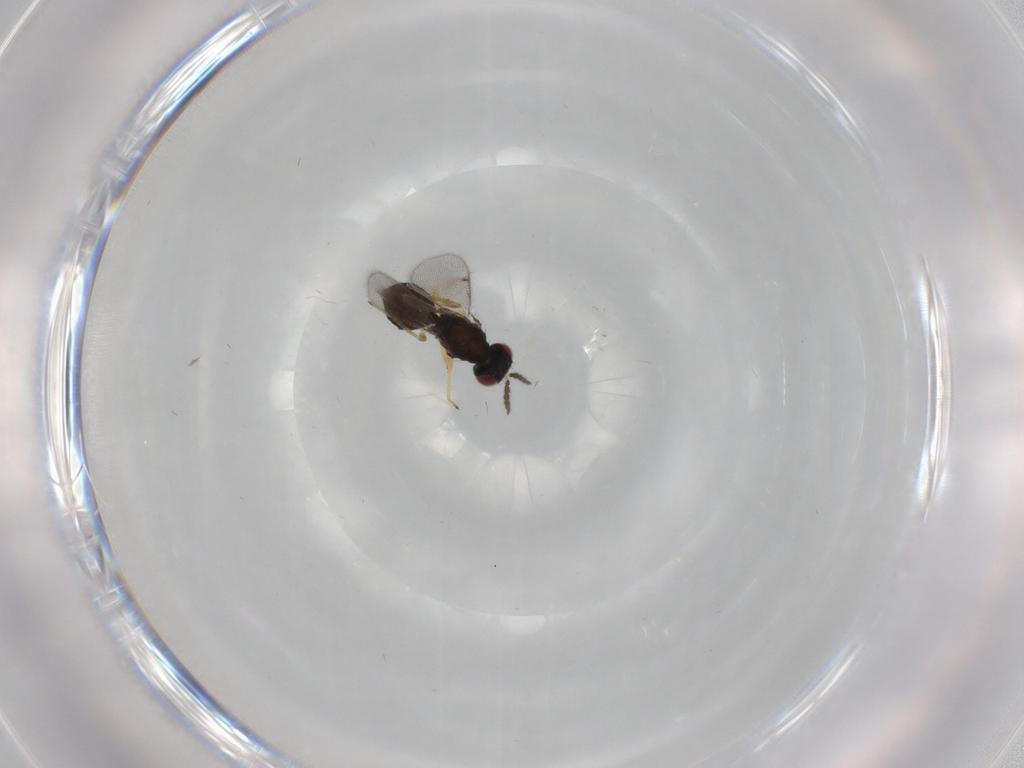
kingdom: Animalia
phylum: Arthropoda
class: Insecta
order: Hymenoptera
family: Eulophidae
